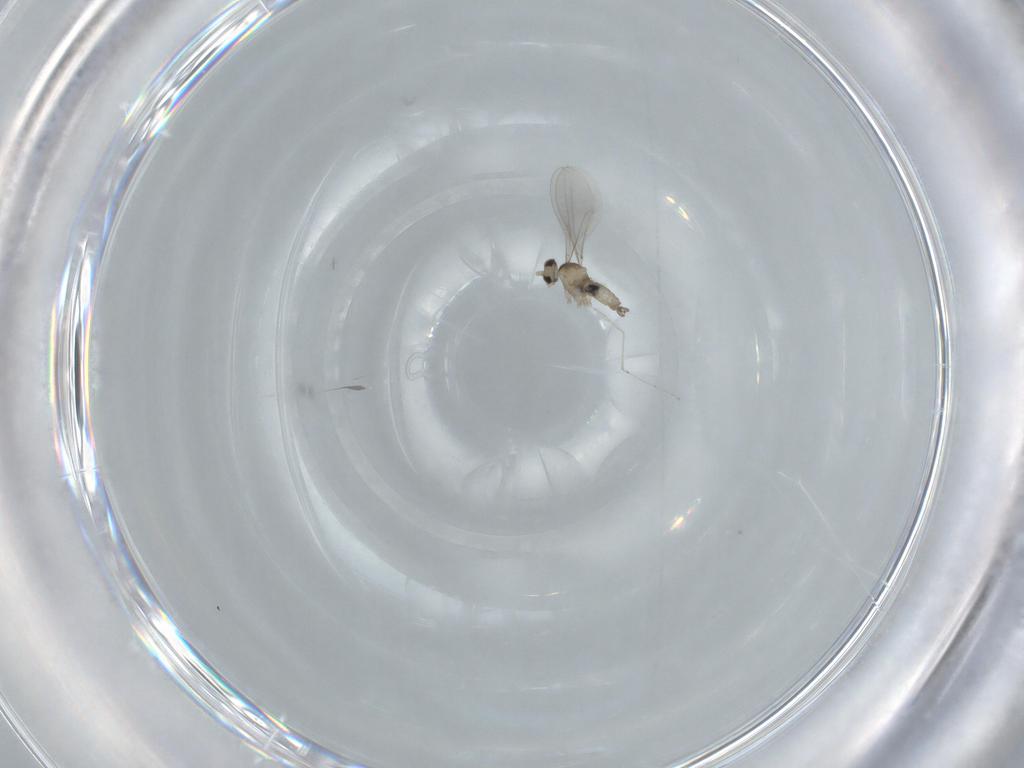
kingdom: Animalia
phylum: Arthropoda
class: Insecta
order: Diptera
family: Cecidomyiidae
